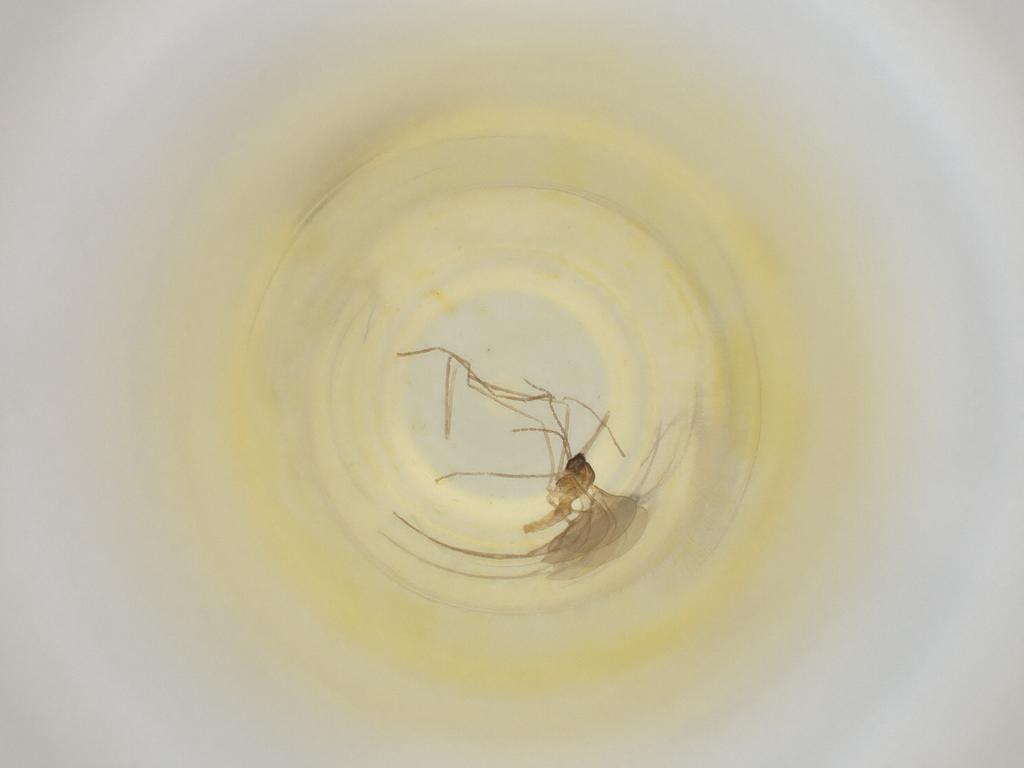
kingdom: Animalia
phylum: Arthropoda
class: Insecta
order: Diptera
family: Cecidomyiidae
